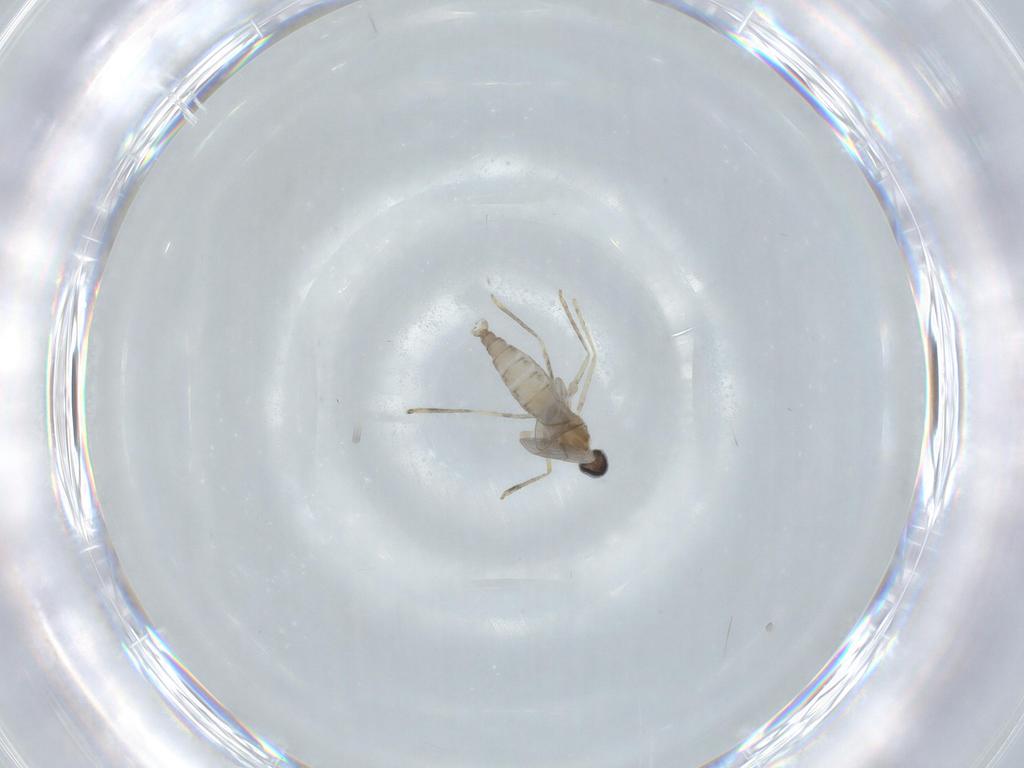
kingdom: Animalia
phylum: Arthropoda
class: Insecta
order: Diptera
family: Cecidomyiidae
